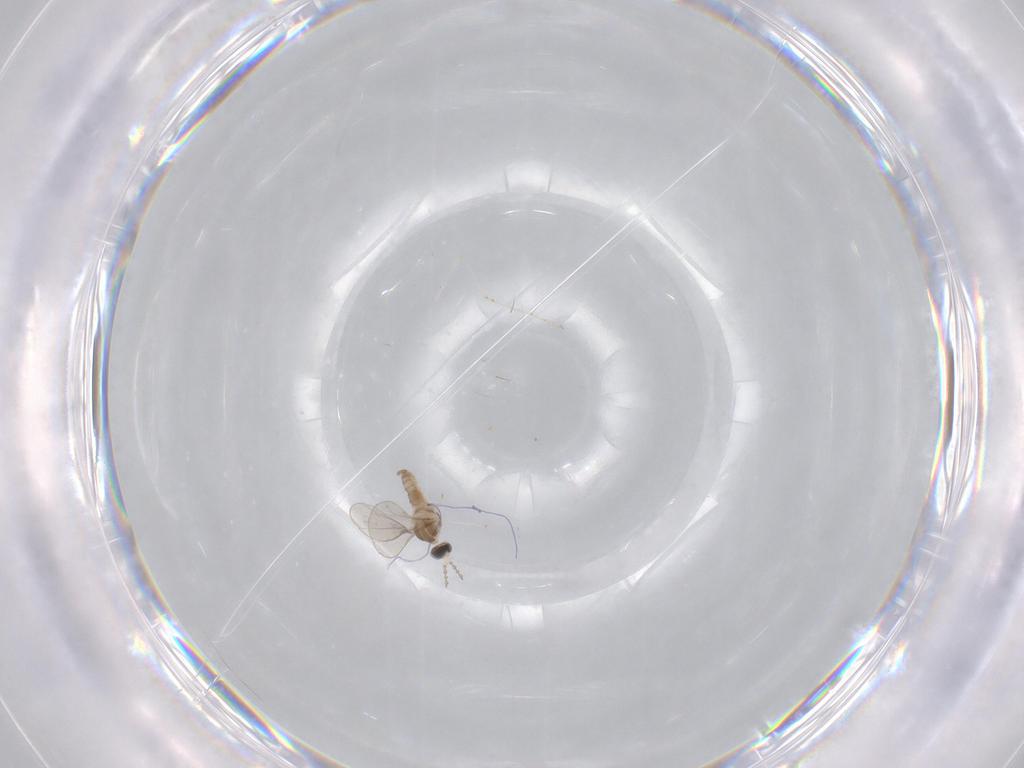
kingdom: Animalia
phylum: Arthropoda
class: Insecta
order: Diptera
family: Cecidomyiidae
